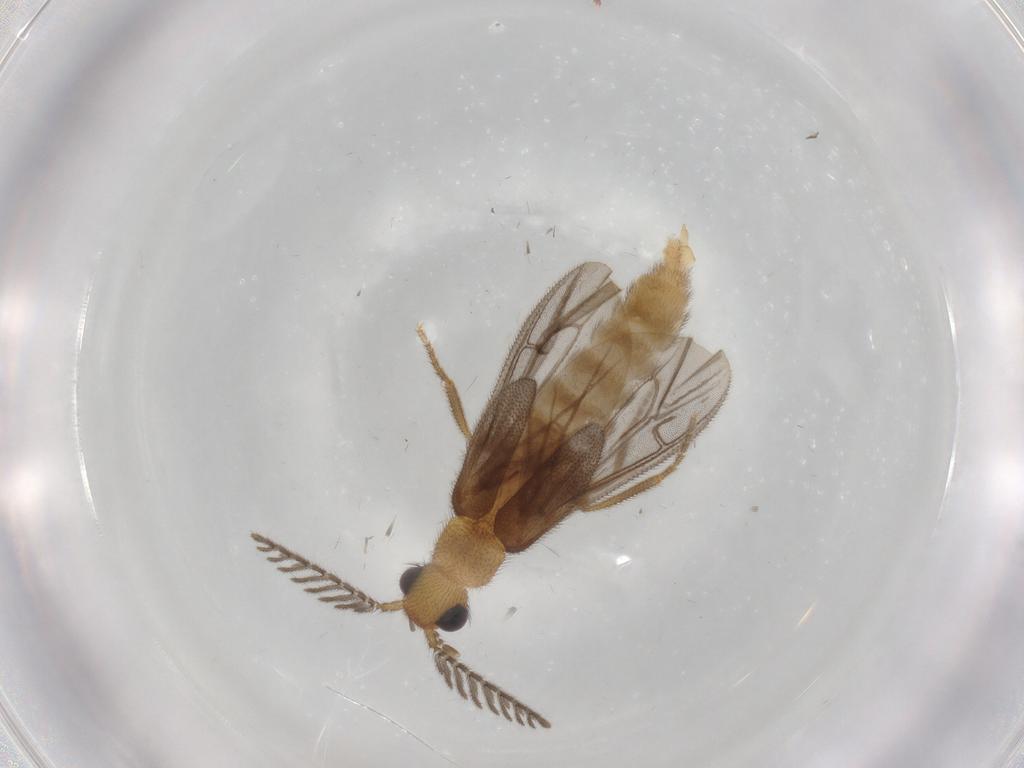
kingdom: Animalia
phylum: Arthropoda
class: Insecta
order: Coleoptera
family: Phengodidae
